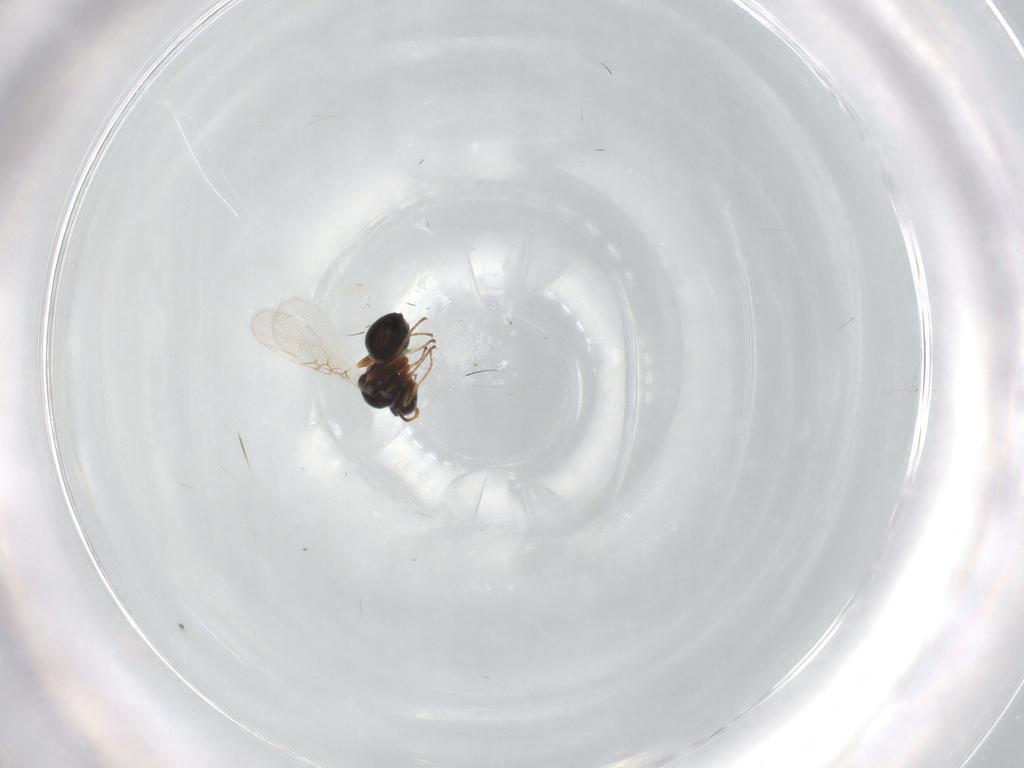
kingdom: Animalia
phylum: Arthropoda
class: Insecta
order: Hymenoptera
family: Figitidae
